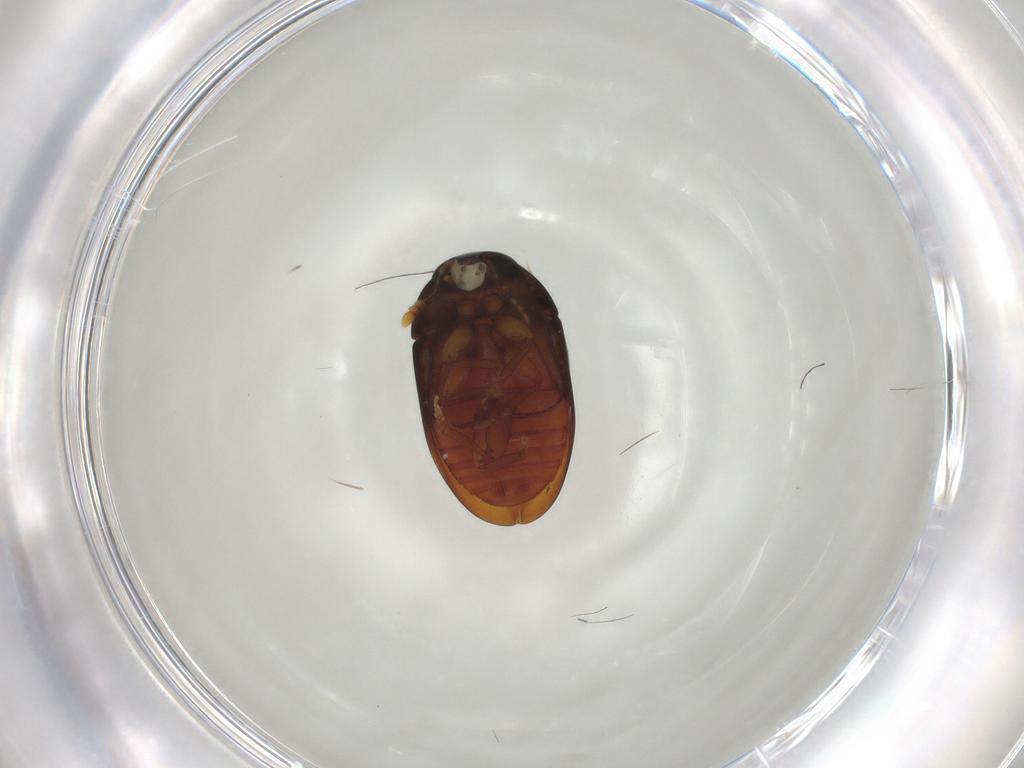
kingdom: Animalia
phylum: Arthropoda
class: Insecta
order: Coleoptera
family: Phalacridae
